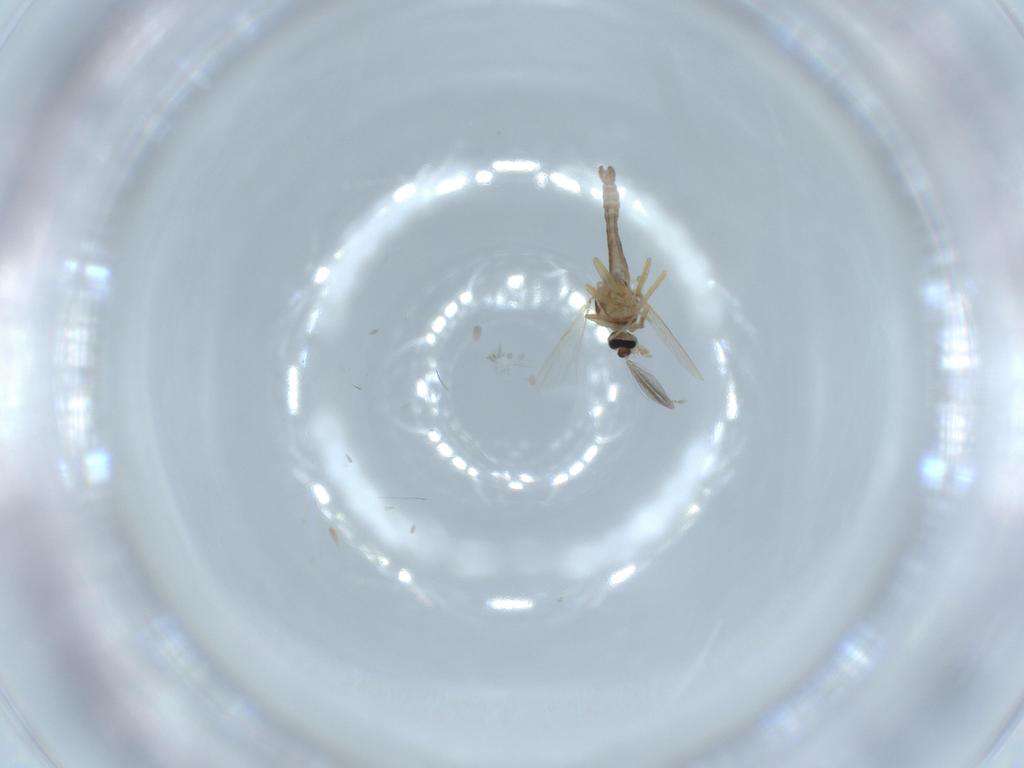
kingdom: Animalia
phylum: Arthropoda
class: Insecta
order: Diptera
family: Ceratopogonidae
